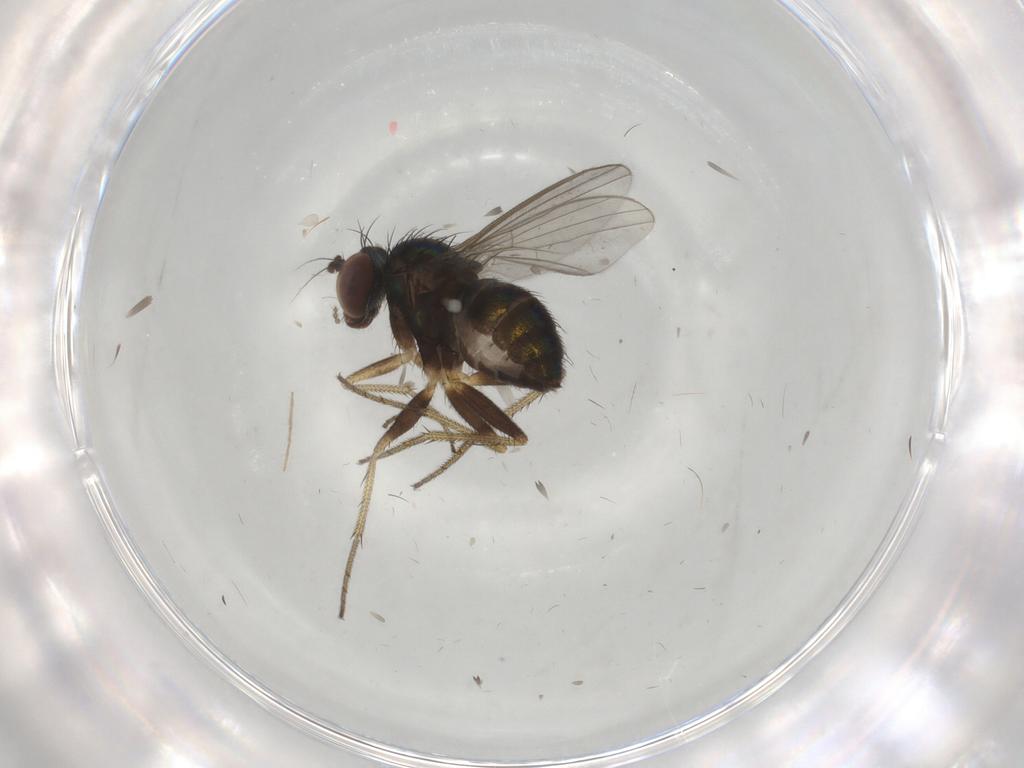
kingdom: Animalia
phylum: Arthropoda
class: Insecta
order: Diptera
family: Chironomidae
